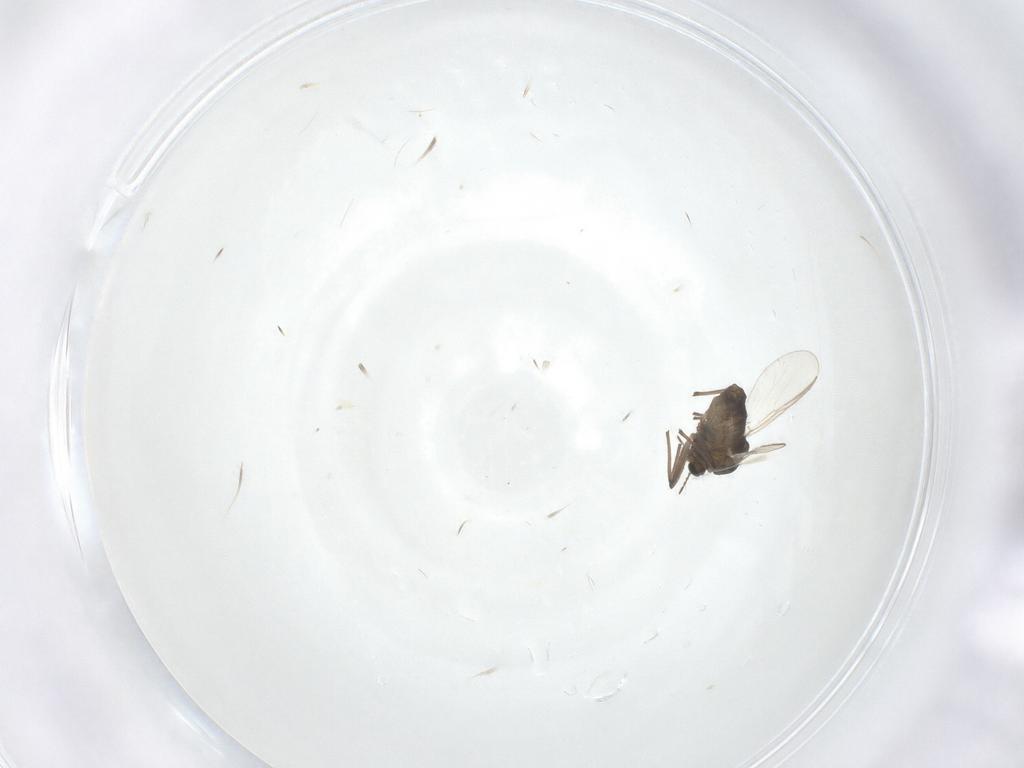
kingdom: Animalia
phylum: Arthropoda
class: Insecta
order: Diptera
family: Chironomidae
